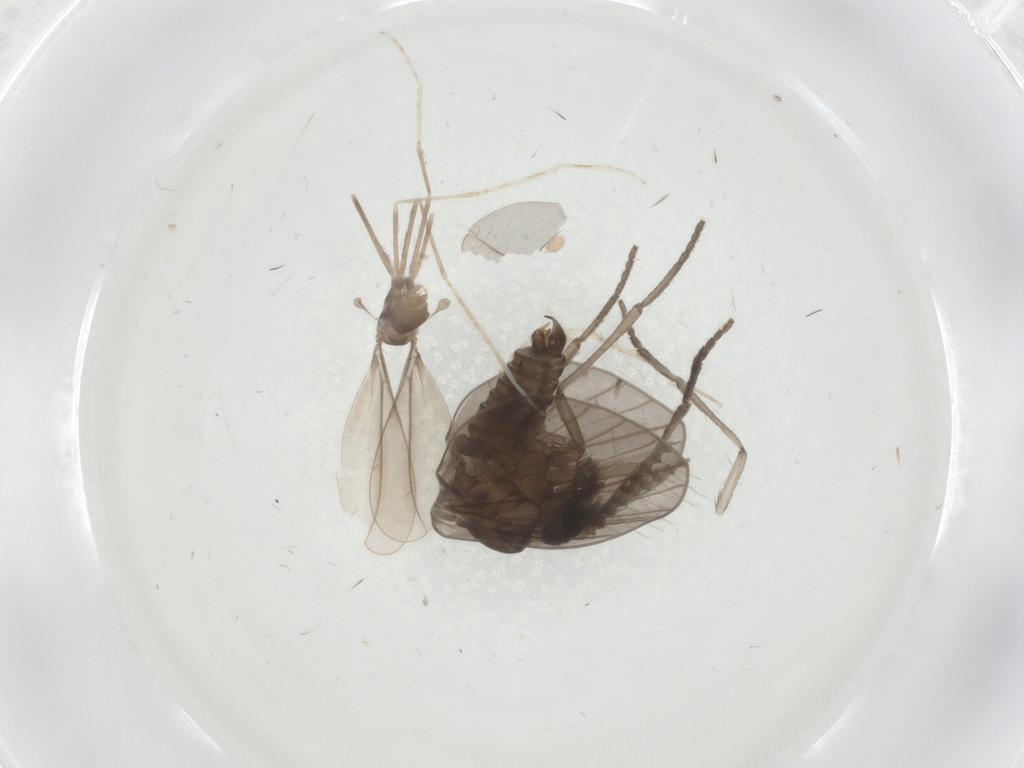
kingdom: Animalia
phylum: Arthropoda
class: Insecta
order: Diptera
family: Psychodidae
